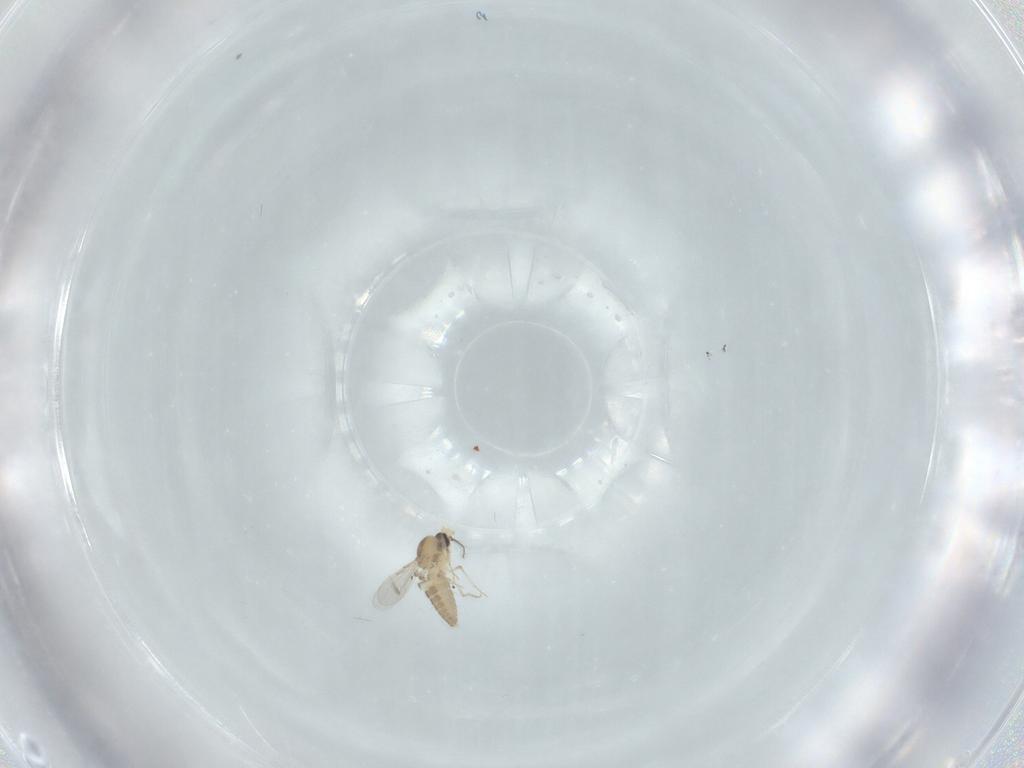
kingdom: Animalia
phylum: Arthropoda
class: Insecta
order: Diptera
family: Ceratopogonidae
